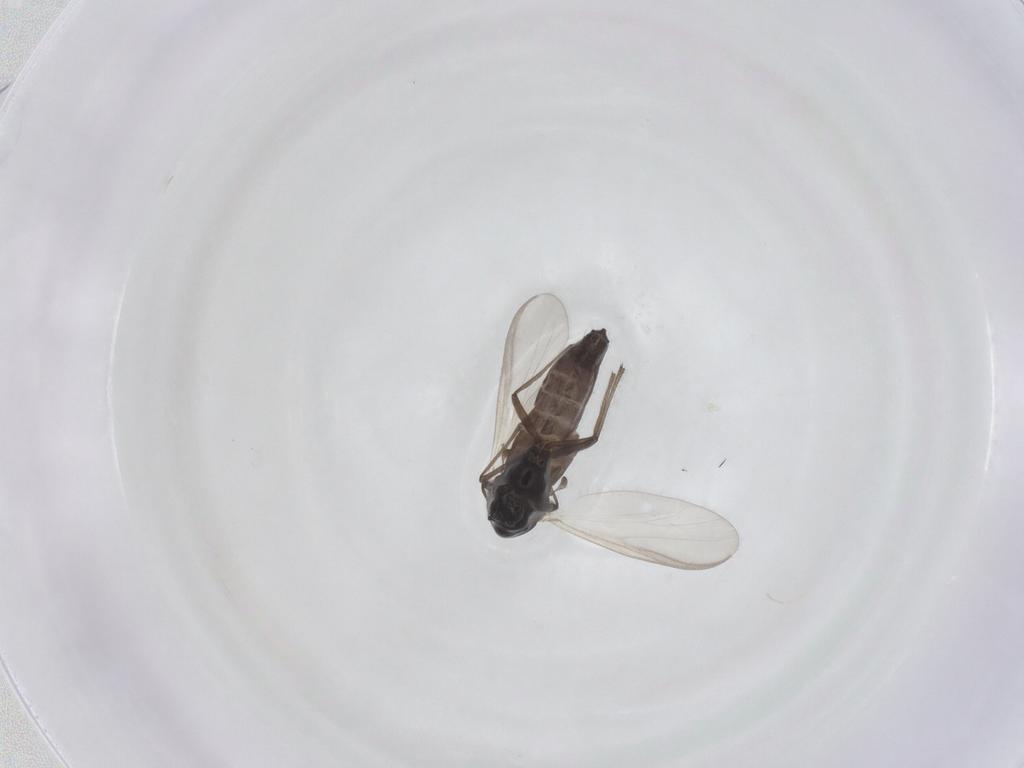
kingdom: Animalia
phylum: Arthropoda
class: Insecta
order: Diptera
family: Chironomidae
